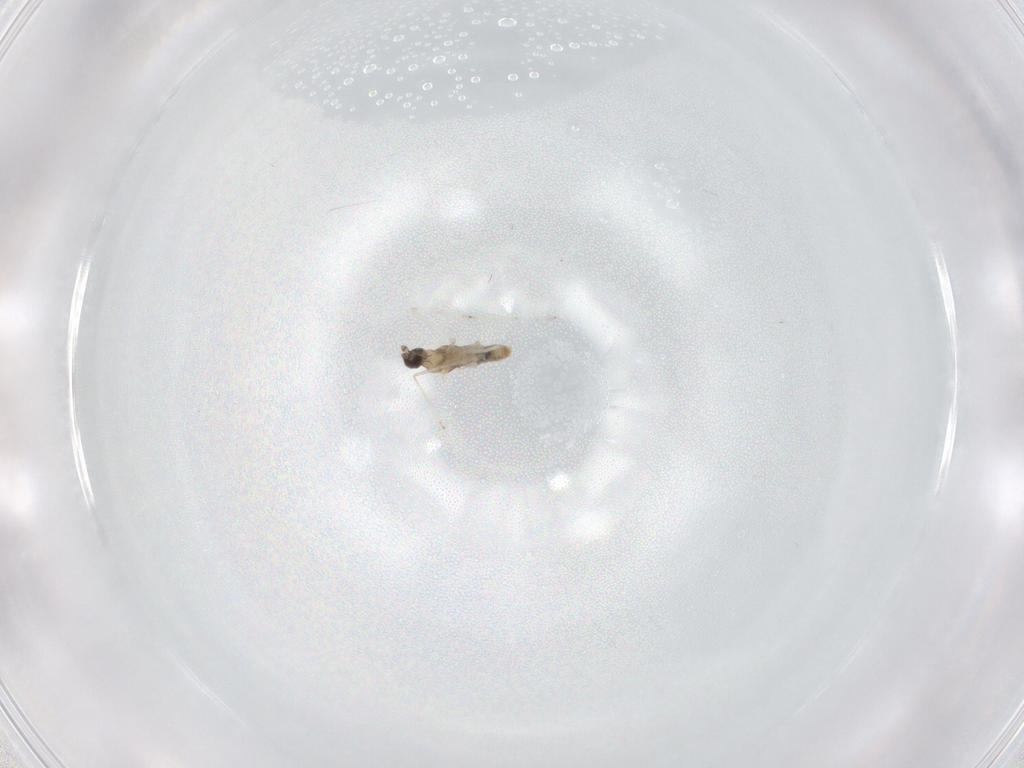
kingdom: Animalia
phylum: Arthropoda
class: Insecta
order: Diptera
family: Cecidomyiidae
